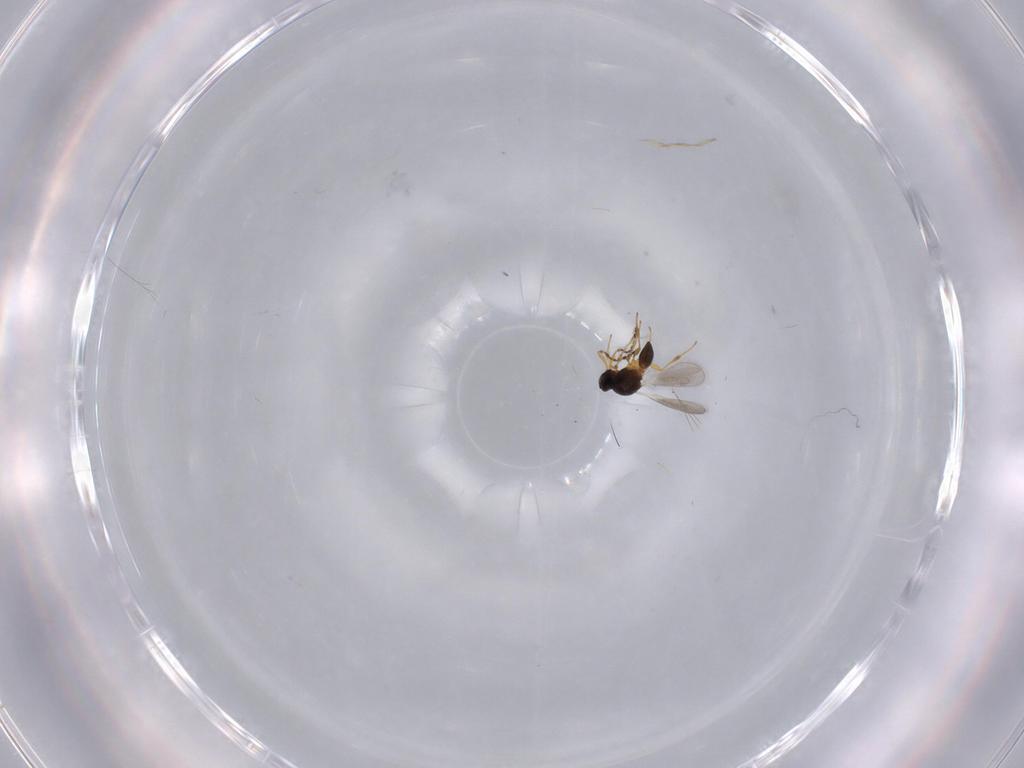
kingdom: Animalia
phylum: Arthropoda
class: Insecta
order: Hymenoptera
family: Platygastridae
